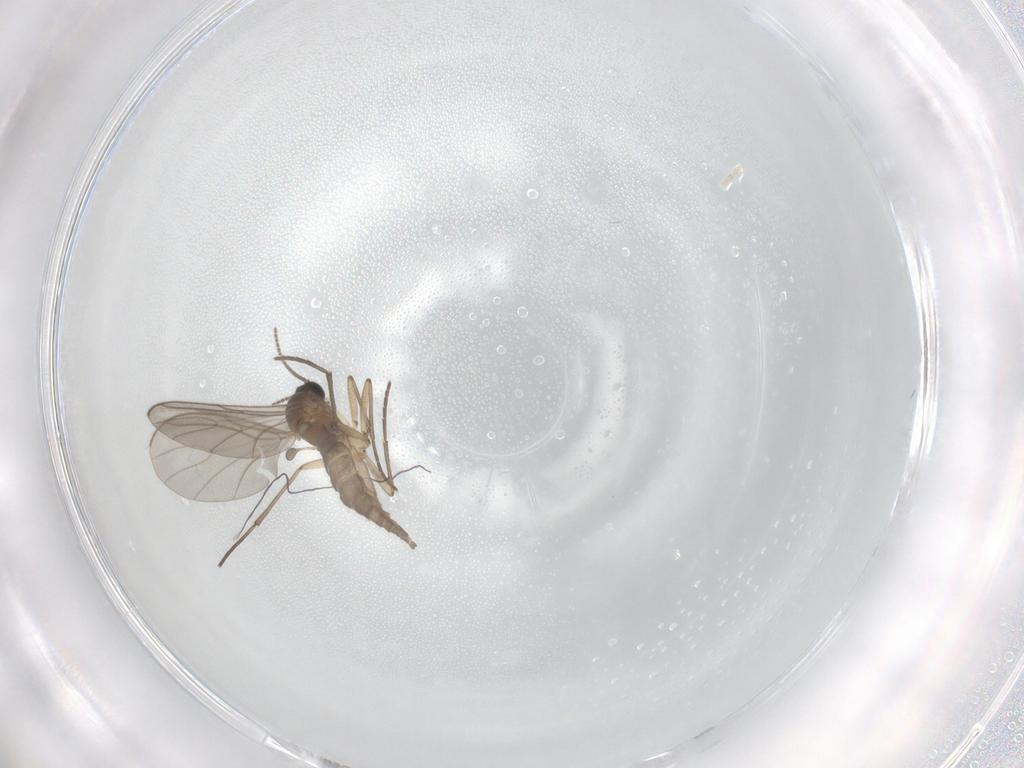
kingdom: Animalia
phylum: Arthropoda
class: Insecta
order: Diptera
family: Sciaridae
